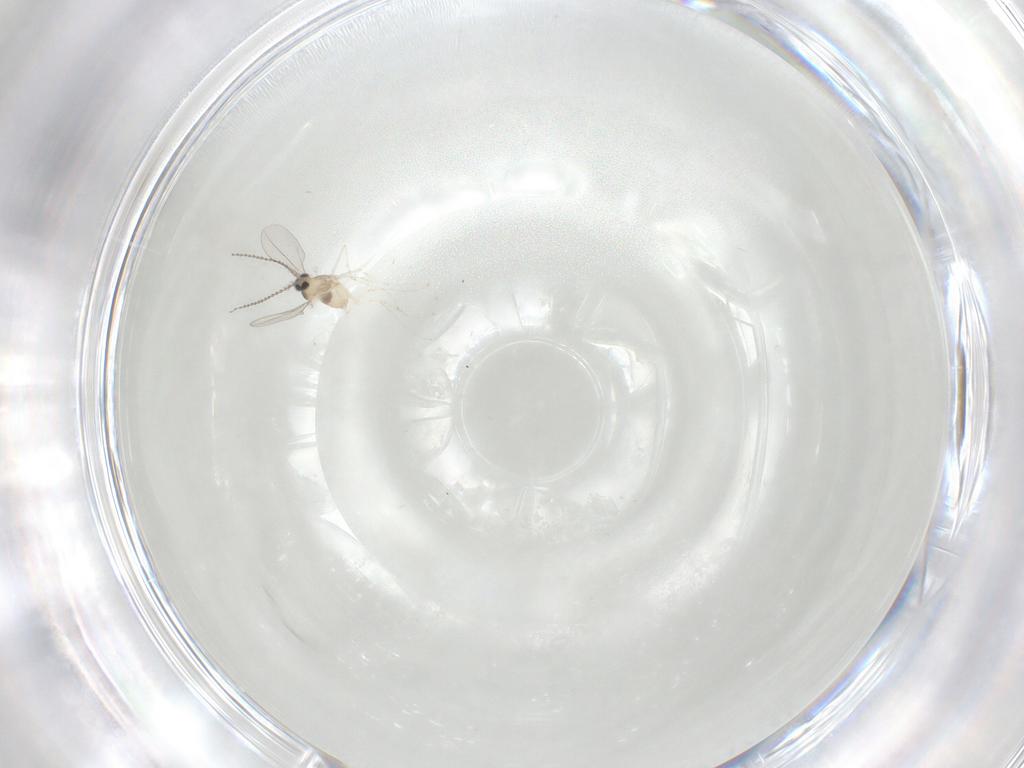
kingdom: Animalia
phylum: Arthropoda
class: Insecta
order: Diptera
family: Cecidomyiidae
